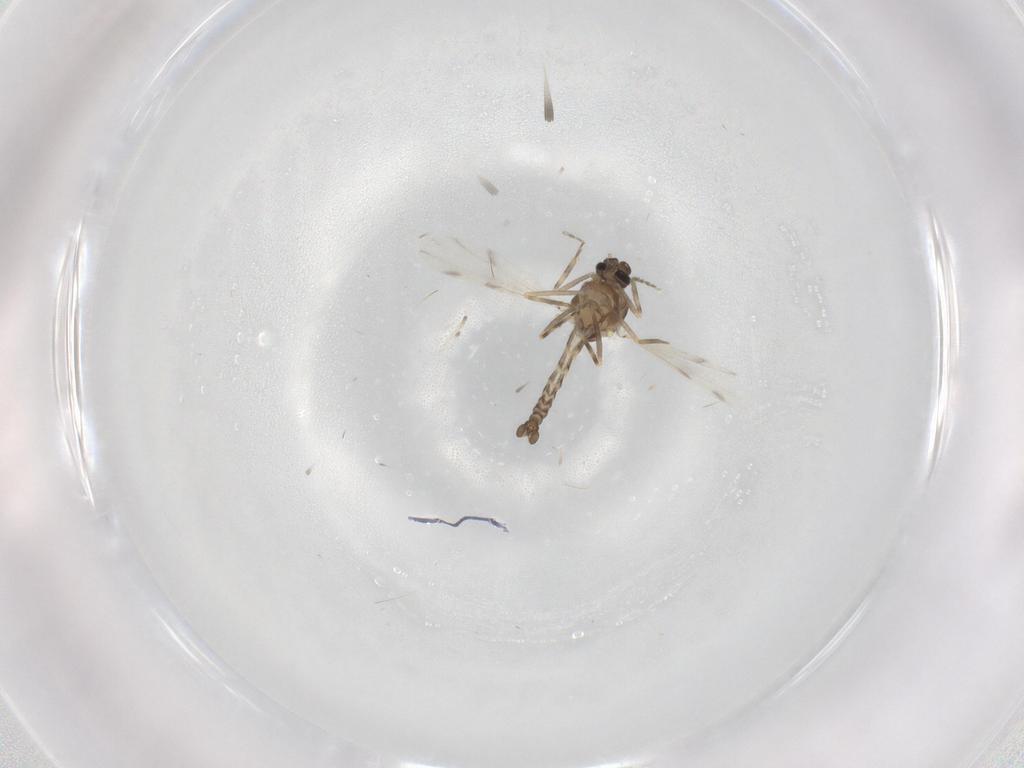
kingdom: Animalia
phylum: Arthropoda
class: Insecta
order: Diptera
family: Ceratopogonidae
